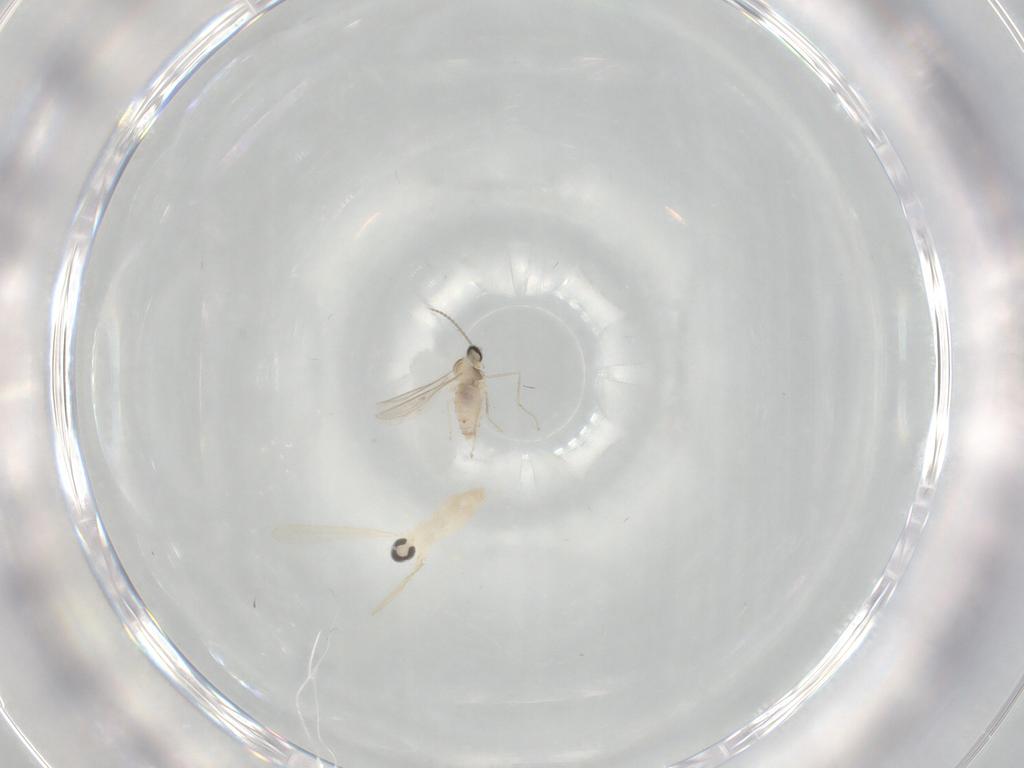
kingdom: Animalia
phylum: Arthropoda
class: Insecta
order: Diptera
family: Cecidomyiidae
